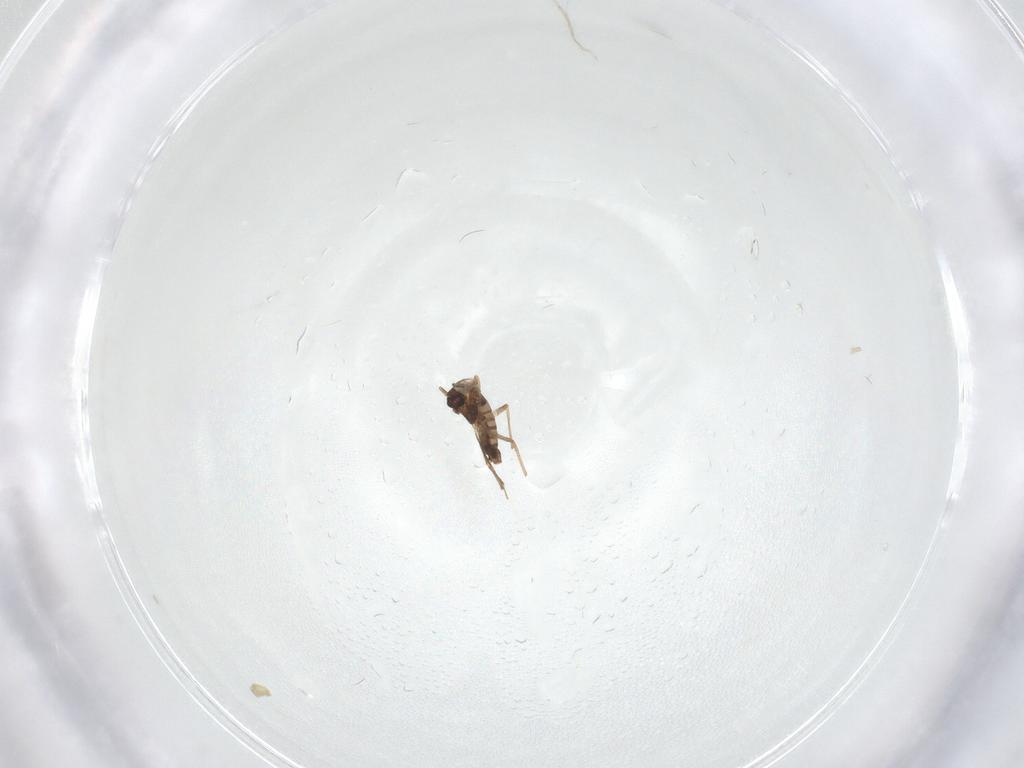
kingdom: Animalia
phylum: Arthropoda
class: Insecta
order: Diptera
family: Chironomidae
